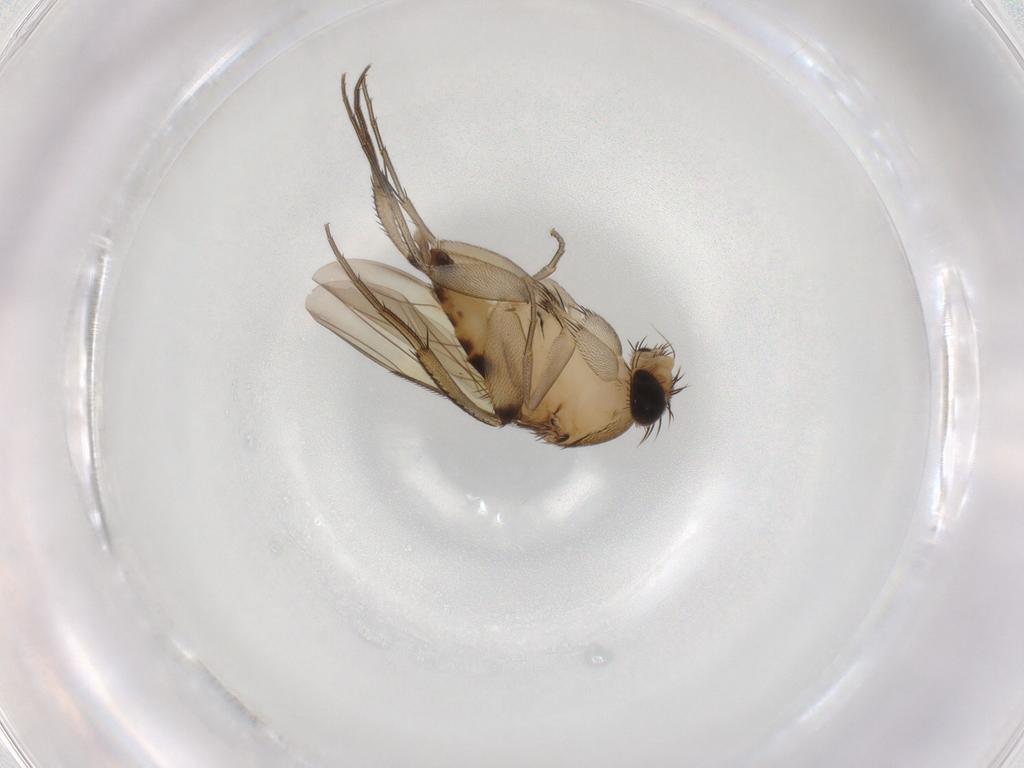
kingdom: Animalia
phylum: Arthropoda
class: Insecta
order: Diptera
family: Phoridae
